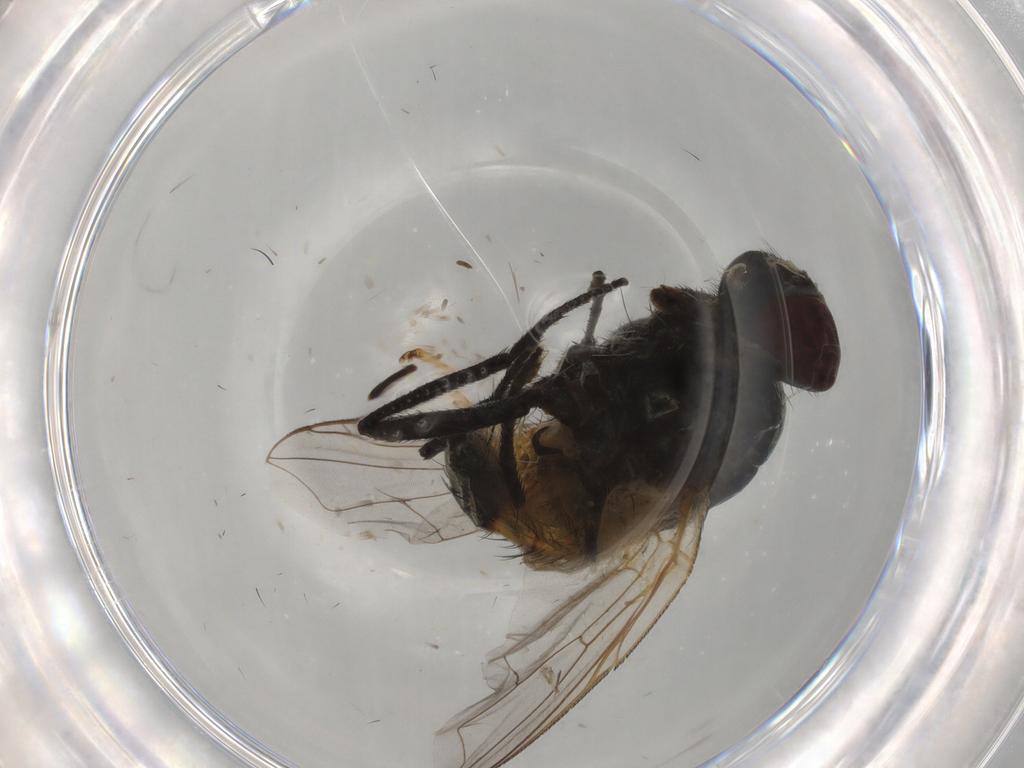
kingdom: Animalia
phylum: Arthropoda
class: Insecta
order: Diptera
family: Muscidae
